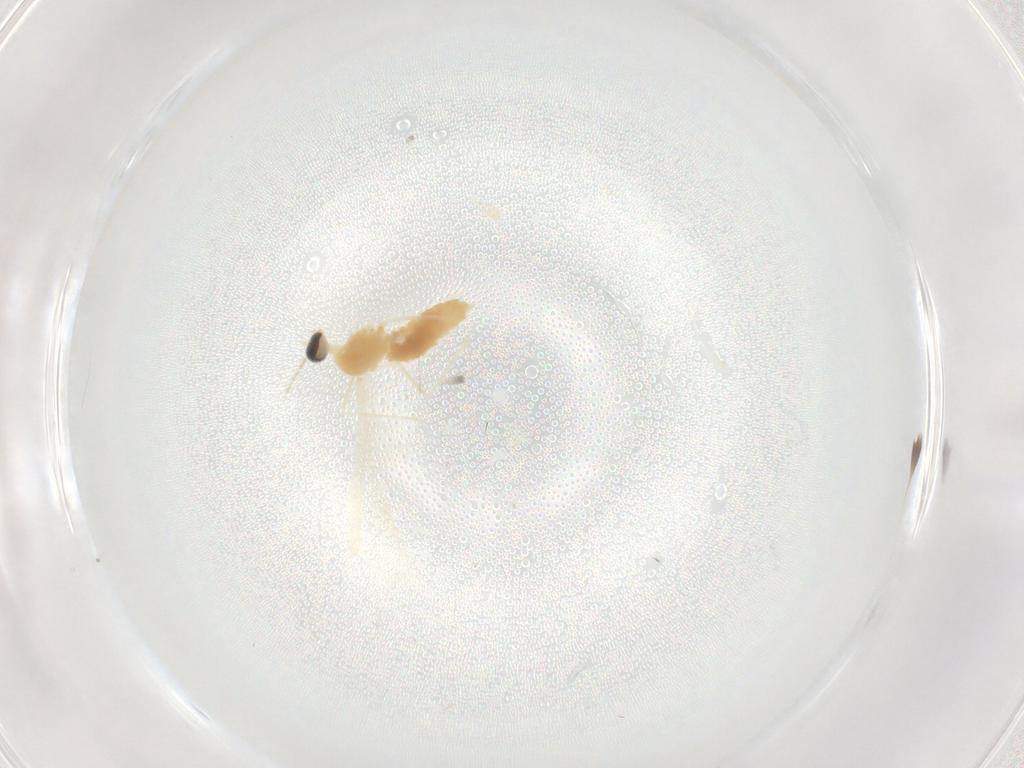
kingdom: Animalia
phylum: Arthropoda
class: Insecta
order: Diptera
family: Cecidomyiidae
